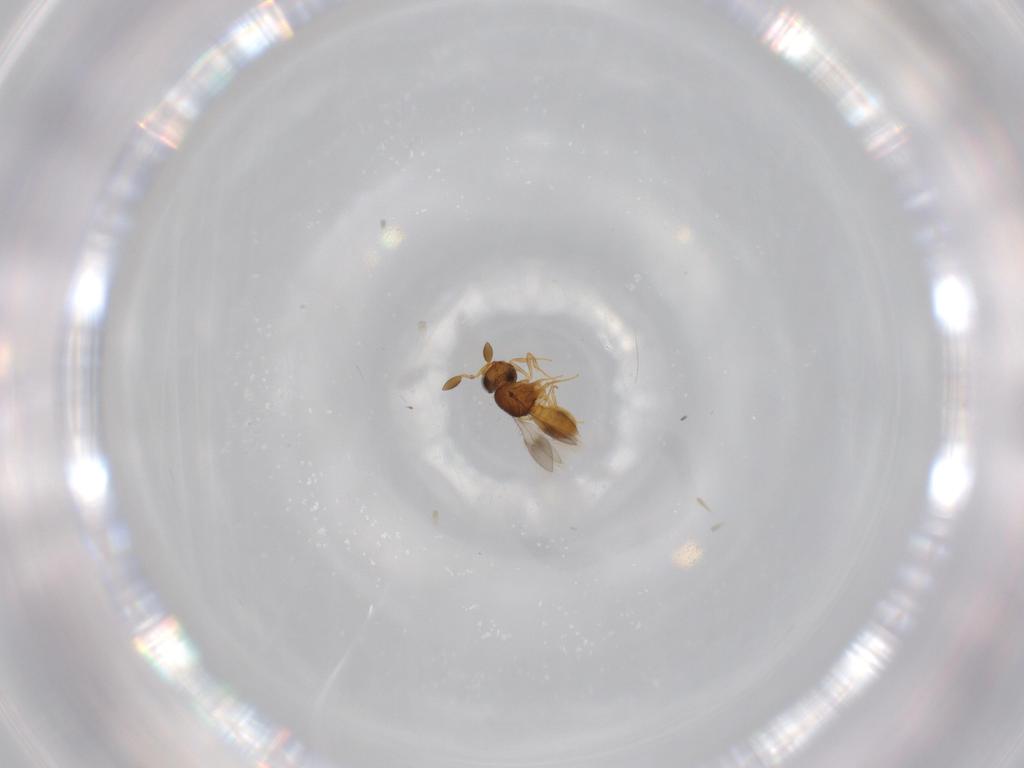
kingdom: Animalia
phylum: Arthropoda
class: Insecta
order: Hymenoptera
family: Scelionidae
